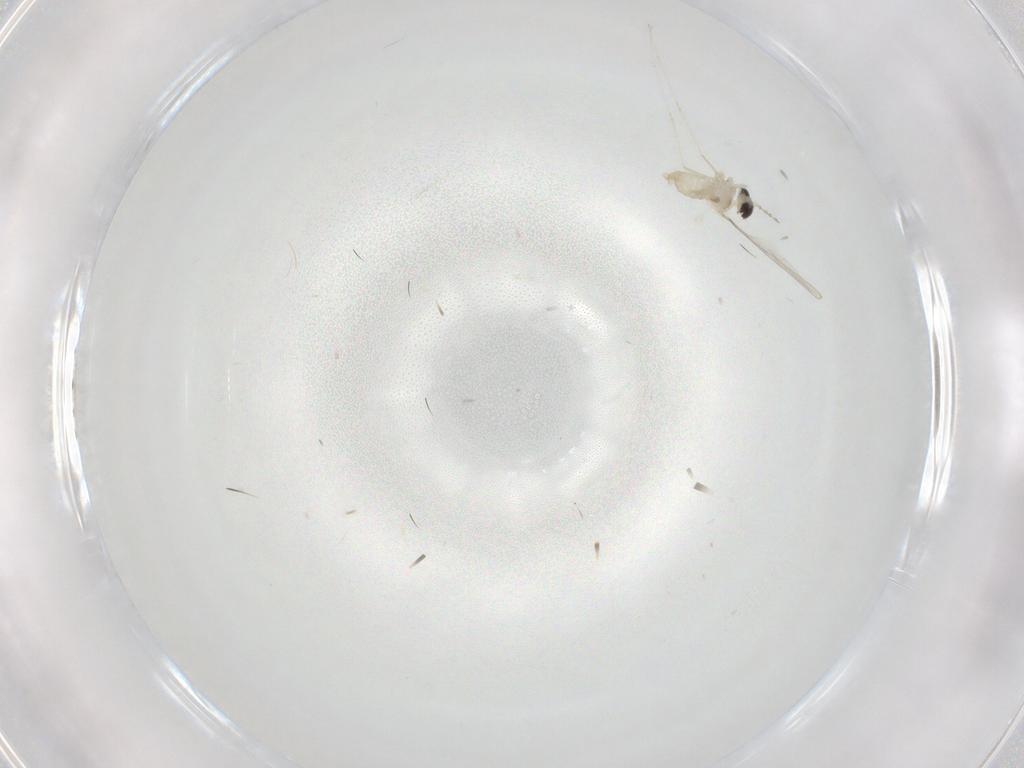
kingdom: Animalia
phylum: Arthropoda
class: Insecta
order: Diptera
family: Cecidomyiidae
